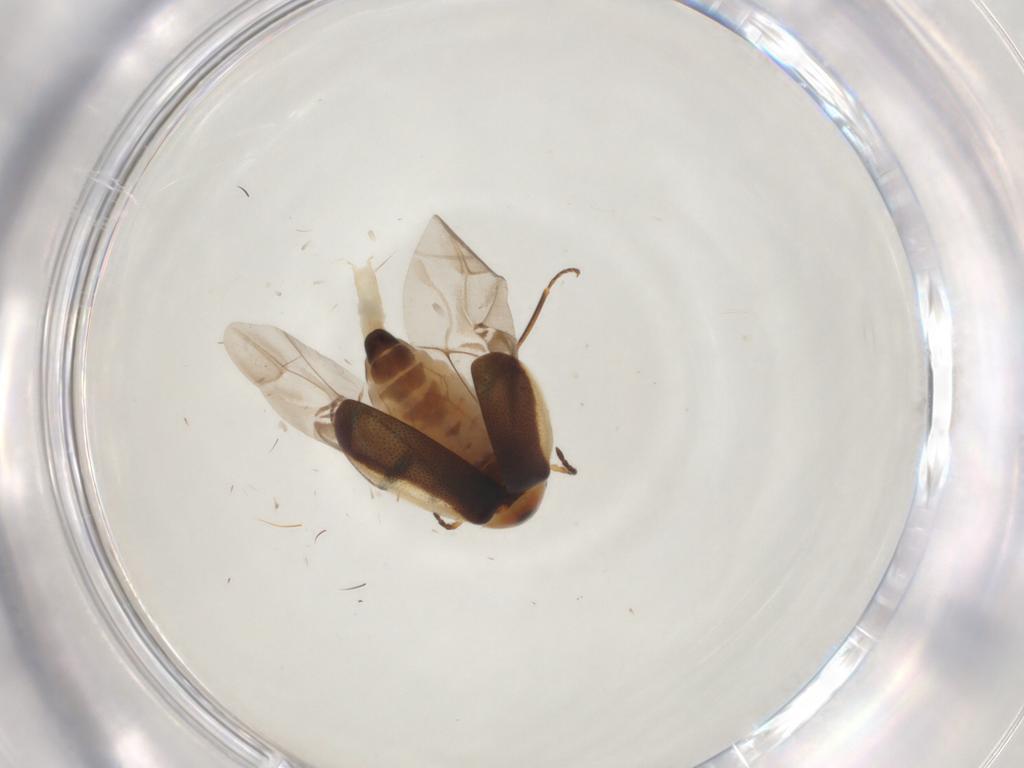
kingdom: Animalia
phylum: Arthropoda
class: Insecta
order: Coleoptera
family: Melyridae
